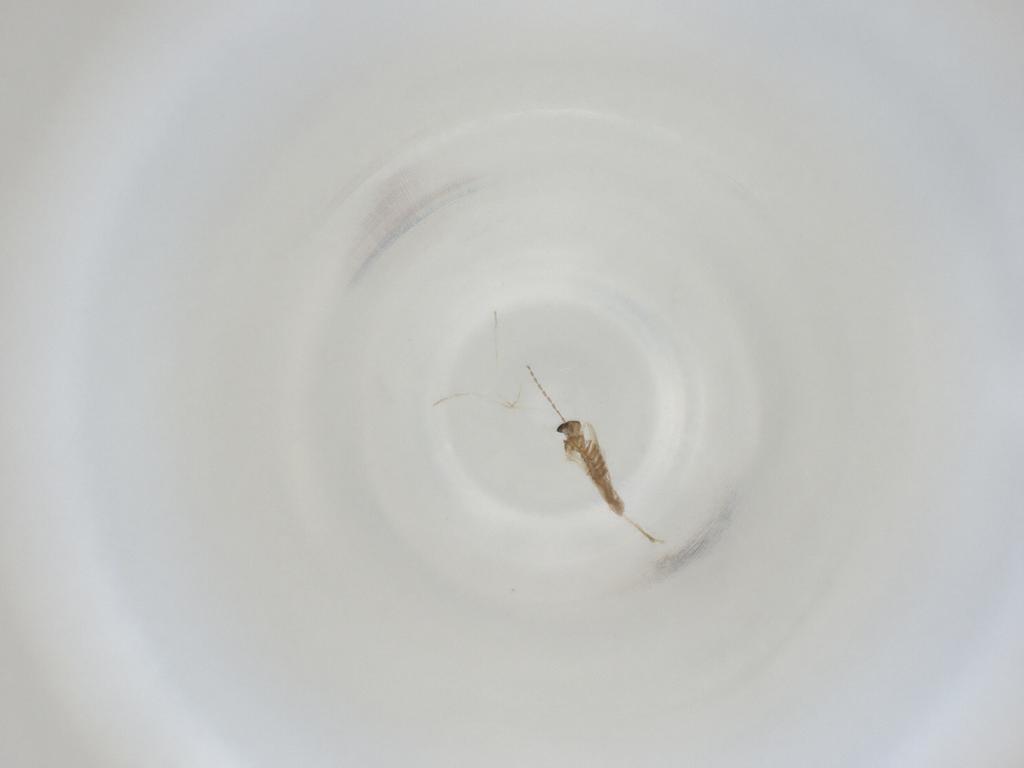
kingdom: Animalia
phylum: Arthropoda
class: Insecta
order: Diptera
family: Cecidomyiidae
